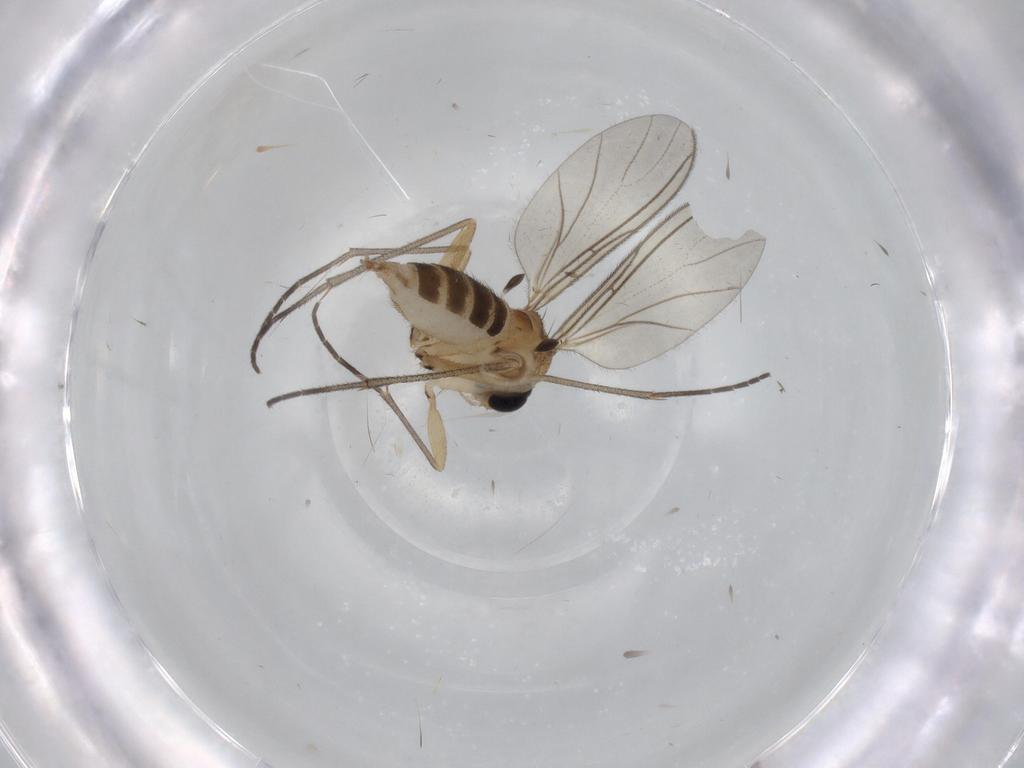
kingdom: Animalia
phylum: Arthropoda
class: Insecta
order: Diptera
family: Sciaridae
